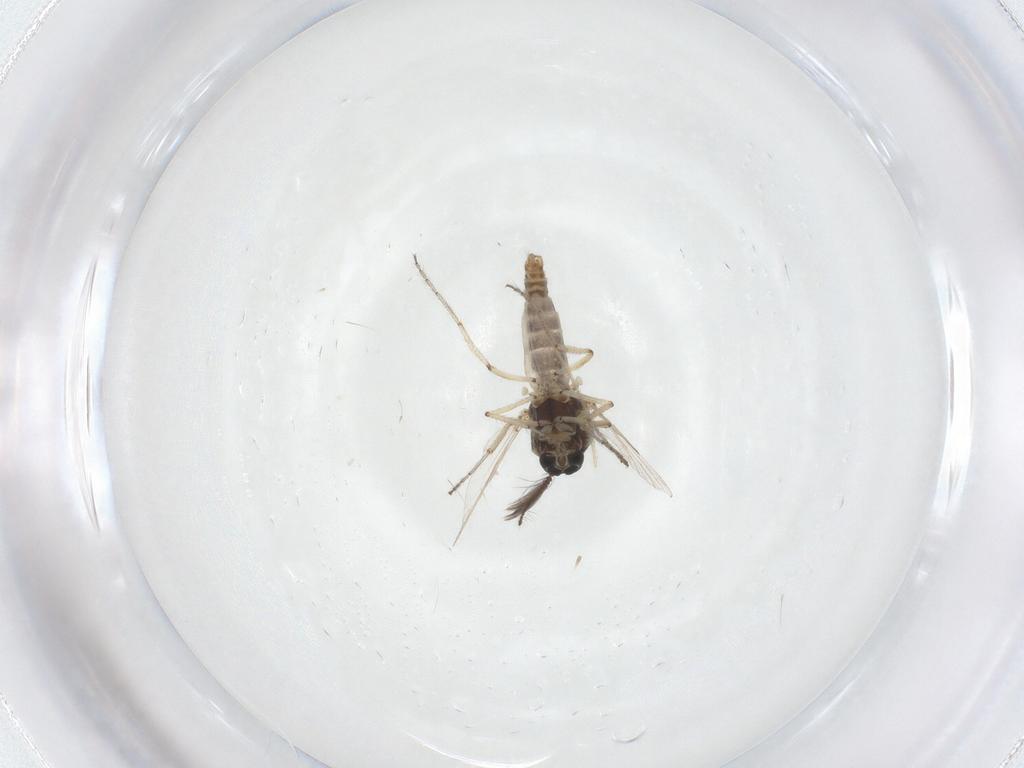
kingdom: Animalia
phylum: Arthropoda
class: Insecta
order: Diptera
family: Ceratopogonidae
